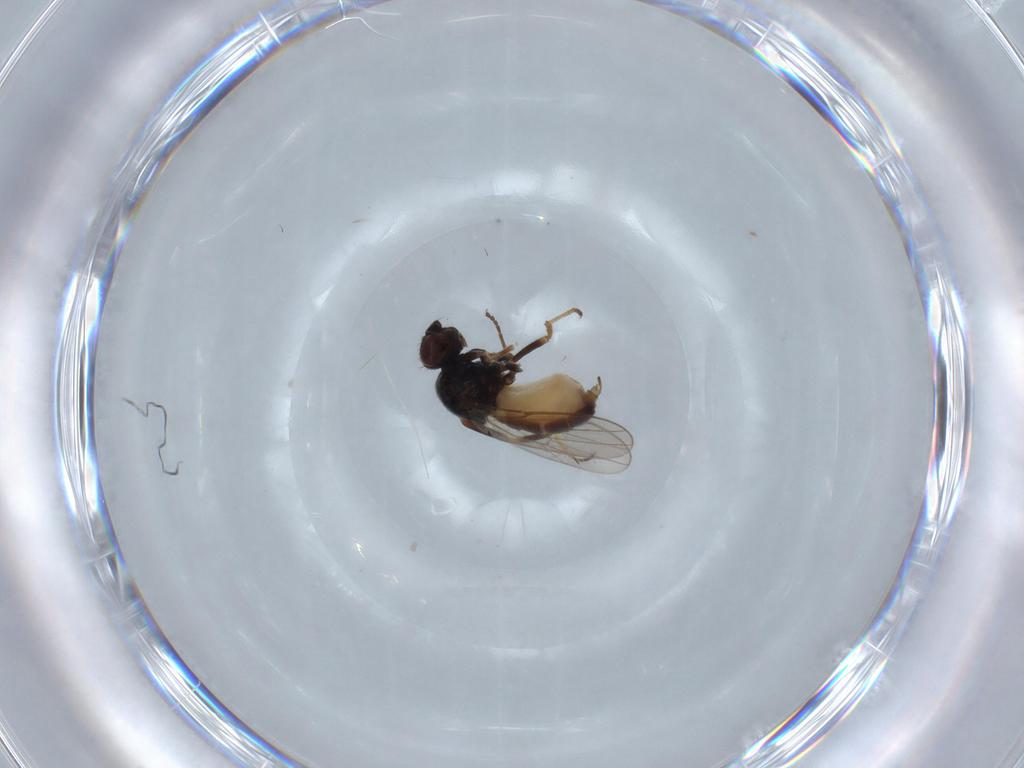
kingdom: Animalia
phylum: Arthropoda
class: Insecta
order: Diptera
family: Chloropidae
